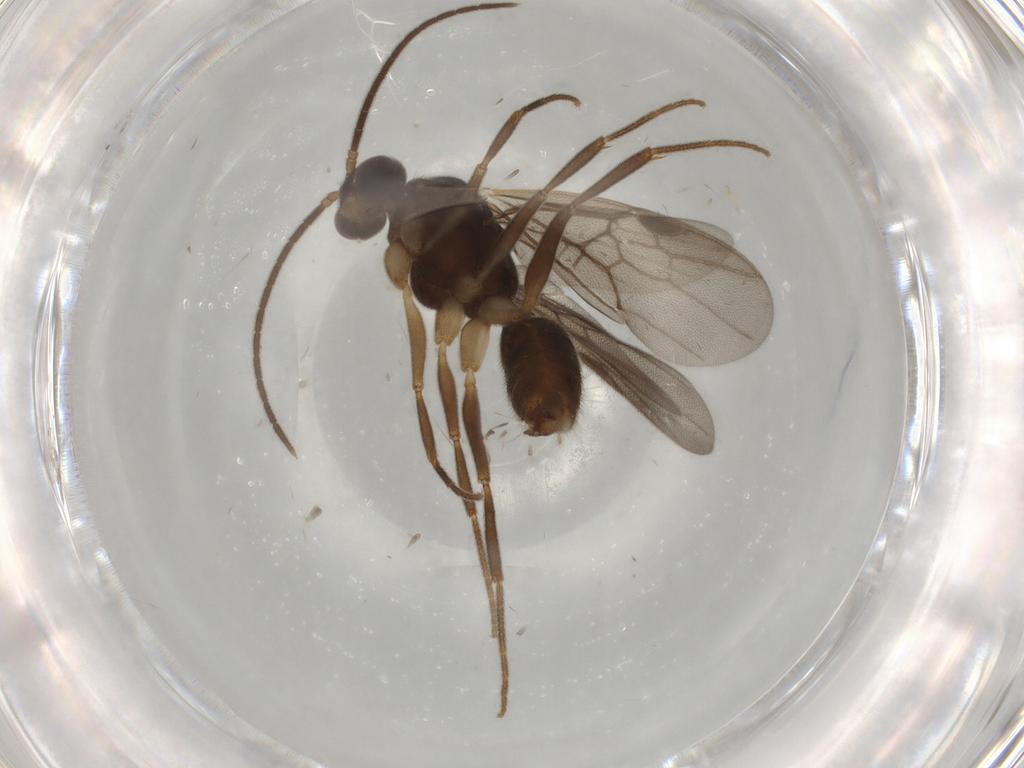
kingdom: Animalia
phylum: Arthropoda
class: Insecta
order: Hymenoptera
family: Formicidae
